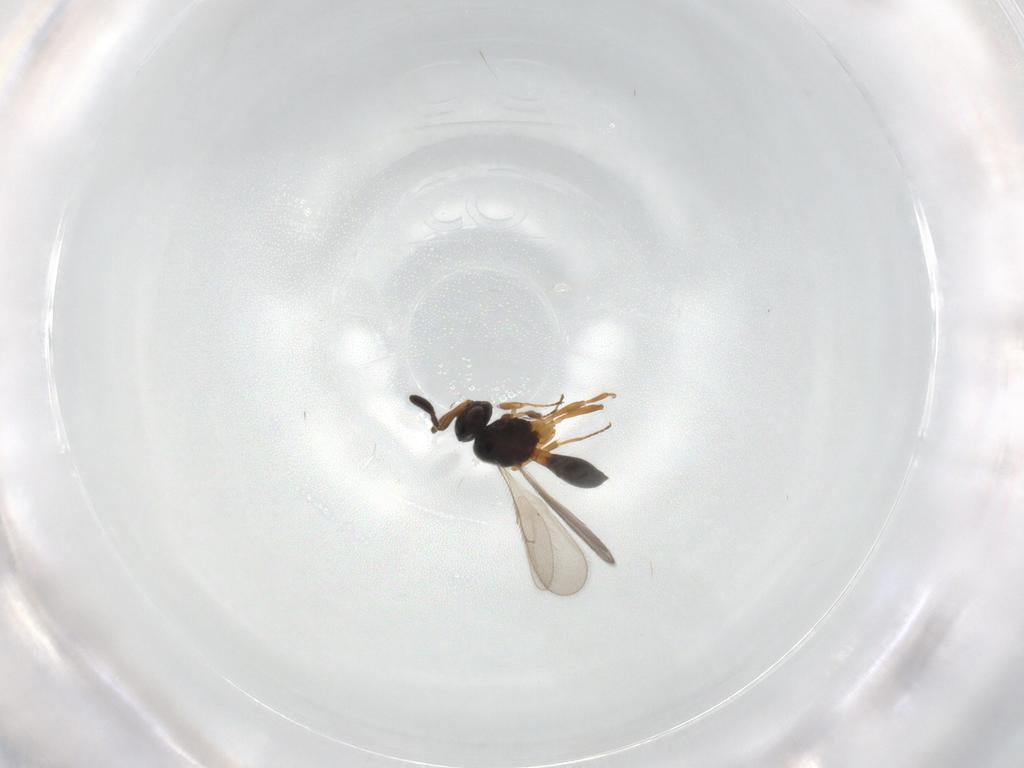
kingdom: Animalia
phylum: Arthropoda
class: Insecta
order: Hymenoptera
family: Scelionidae
